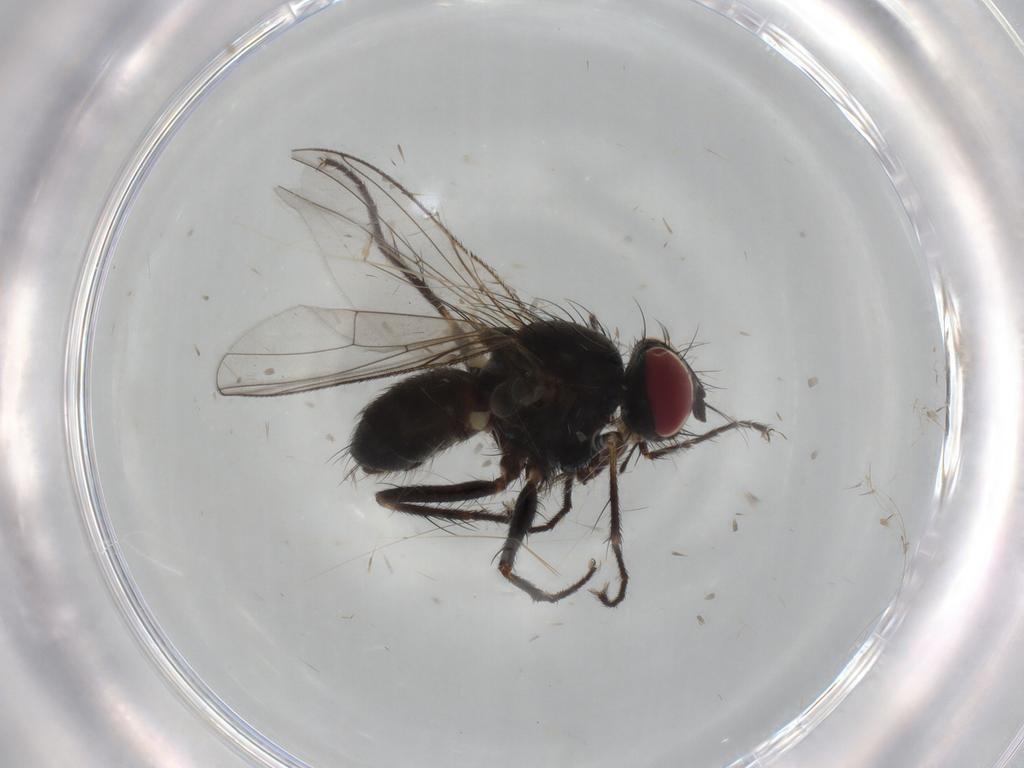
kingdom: Animalia
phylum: Arthropoda
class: Insecta
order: Diptera
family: Muscidae
